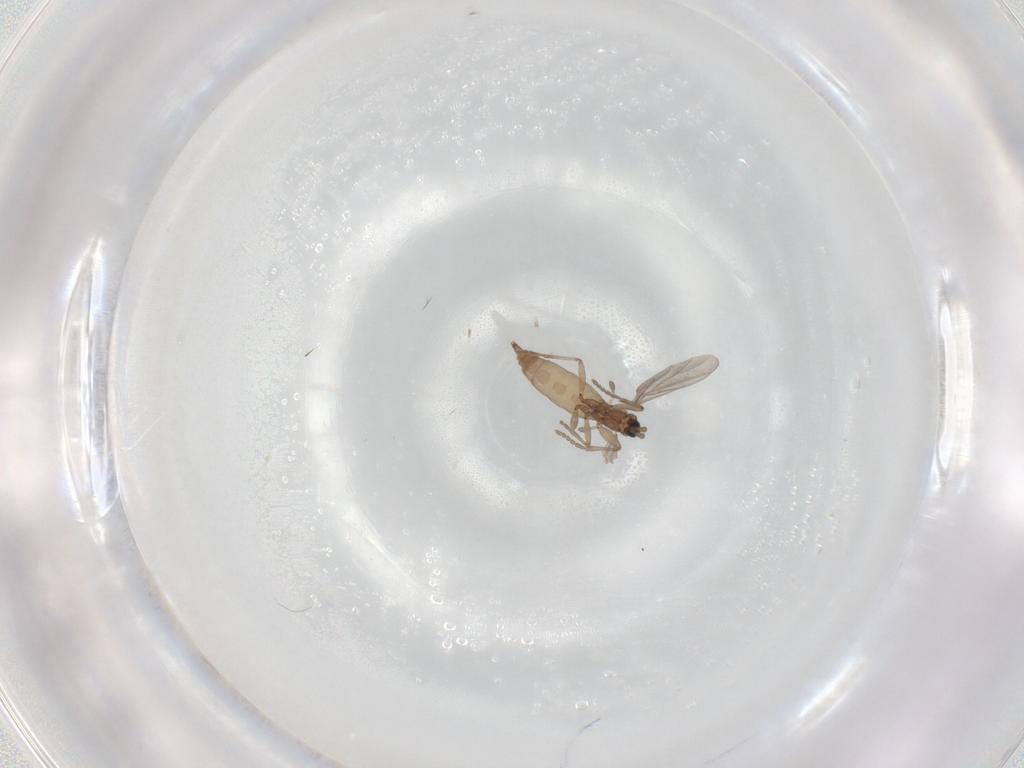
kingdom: Animalia
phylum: Arthropoda
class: Insecta
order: Diptera
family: Sciaridae
